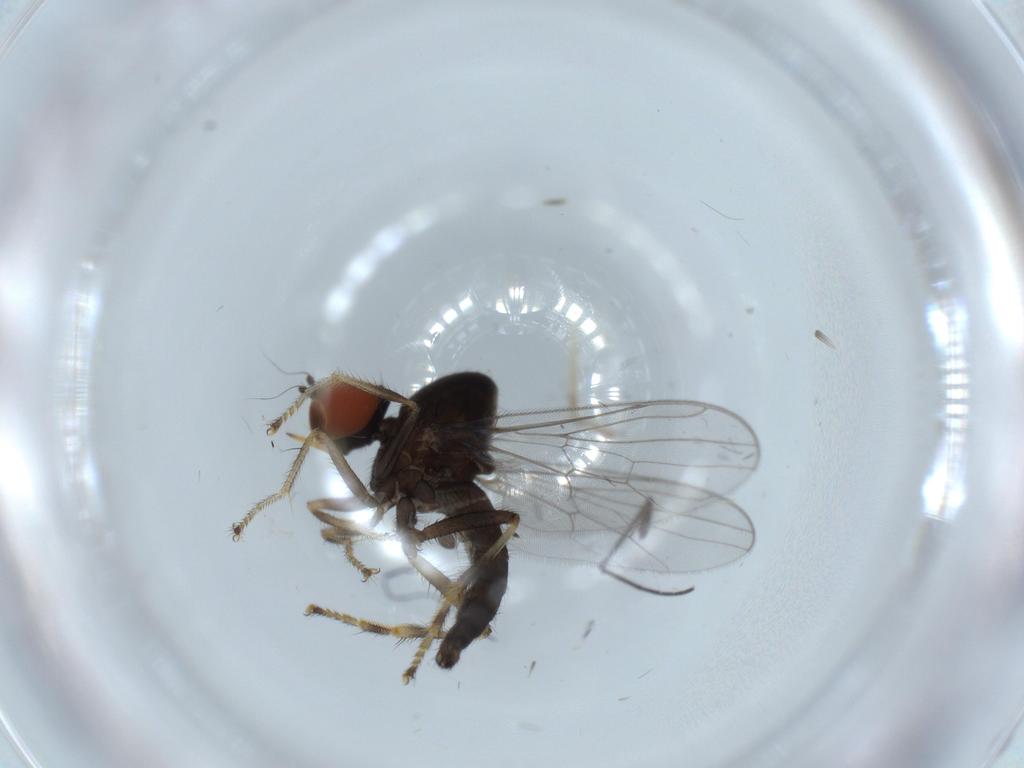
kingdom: Animalia
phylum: Arthropoda
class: Insecta
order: Diptera
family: Hybotidae
